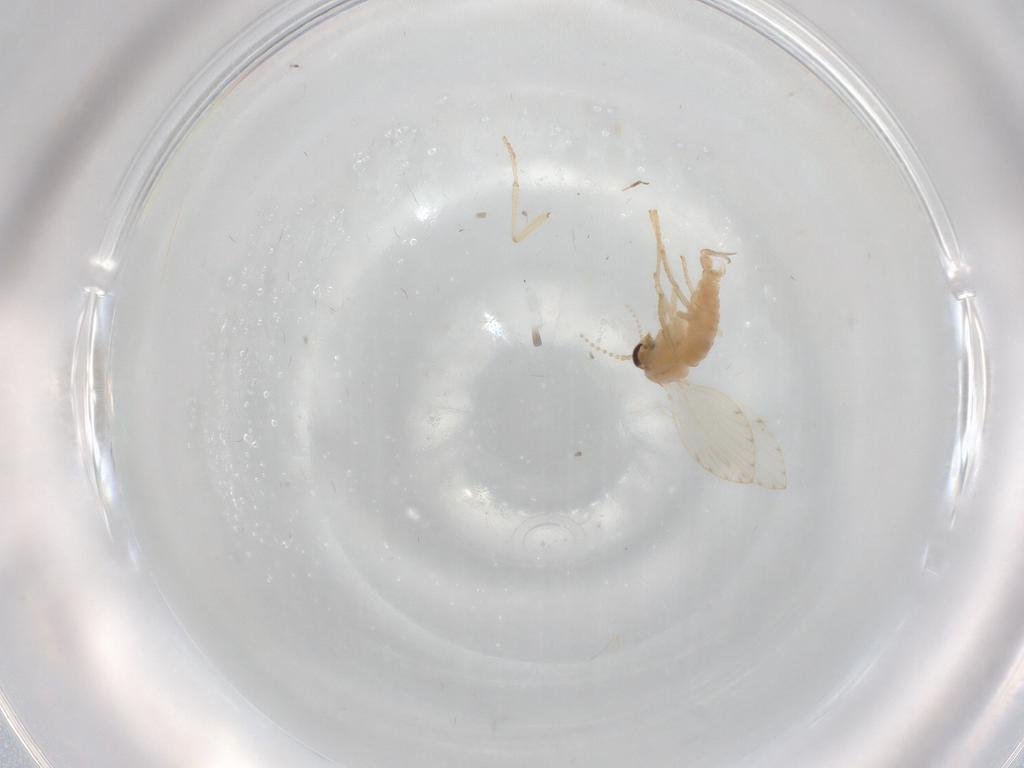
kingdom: Animalia
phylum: Arthropoda
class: Insecta
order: Diptera
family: Psychodidae
